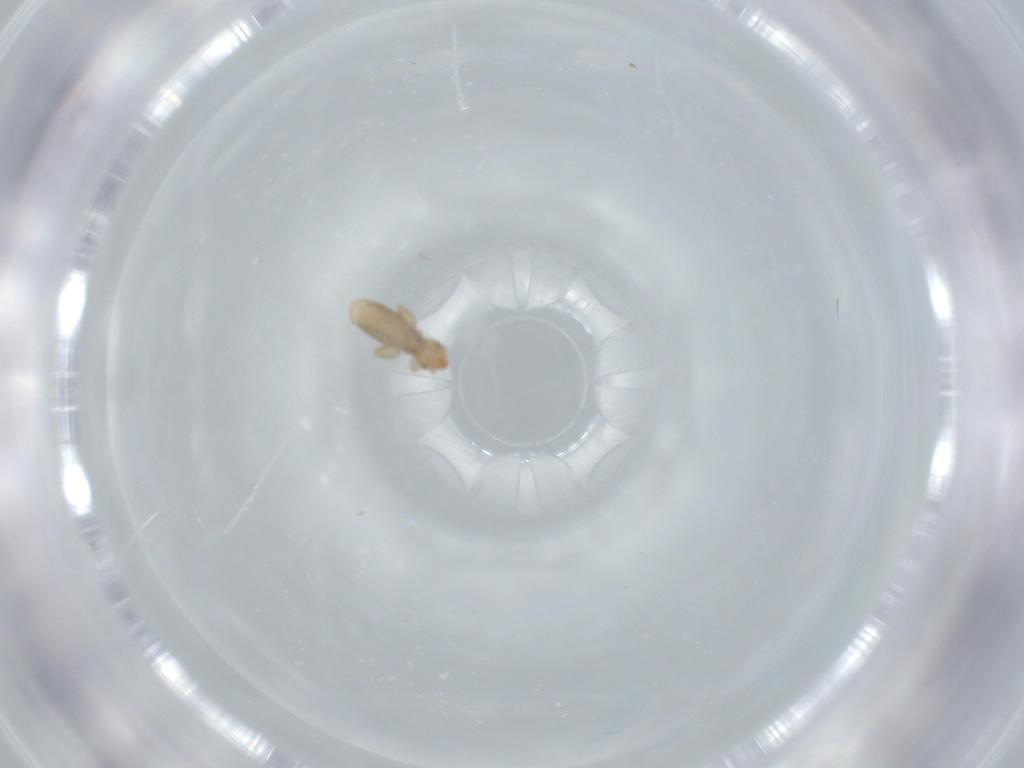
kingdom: Animalia
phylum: Arthropoda
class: Insecta
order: Psocodea
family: Liposcelididae
